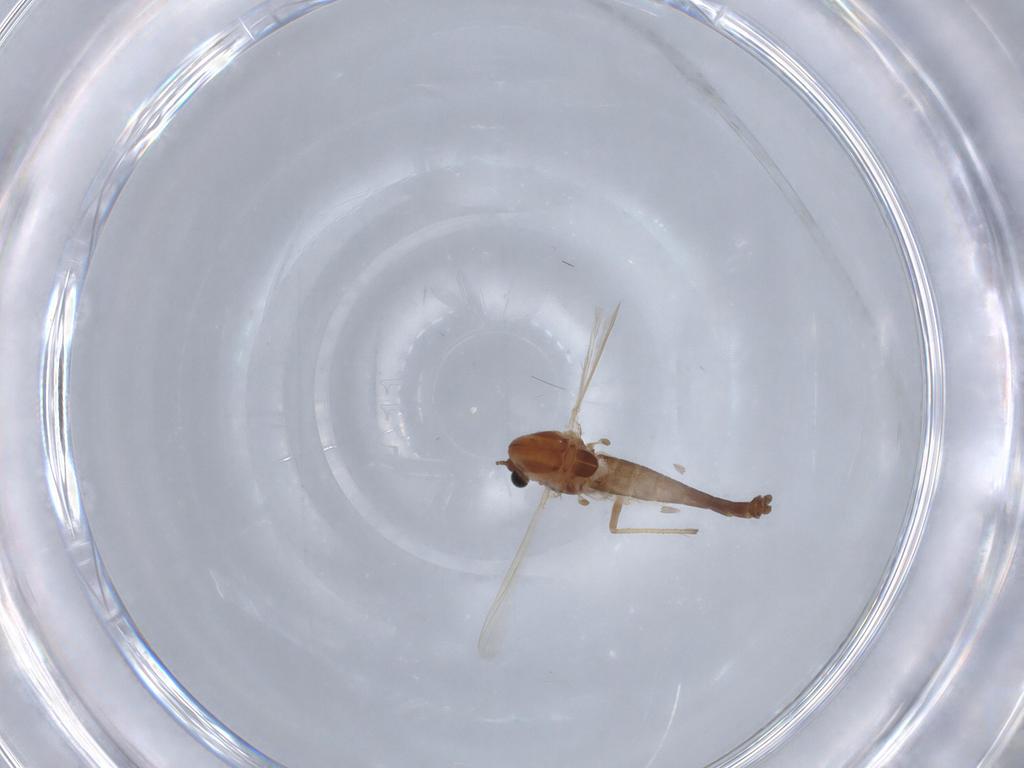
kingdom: Animalia
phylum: Arthropoda
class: Insecta
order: Diptera
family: Chironomidae
